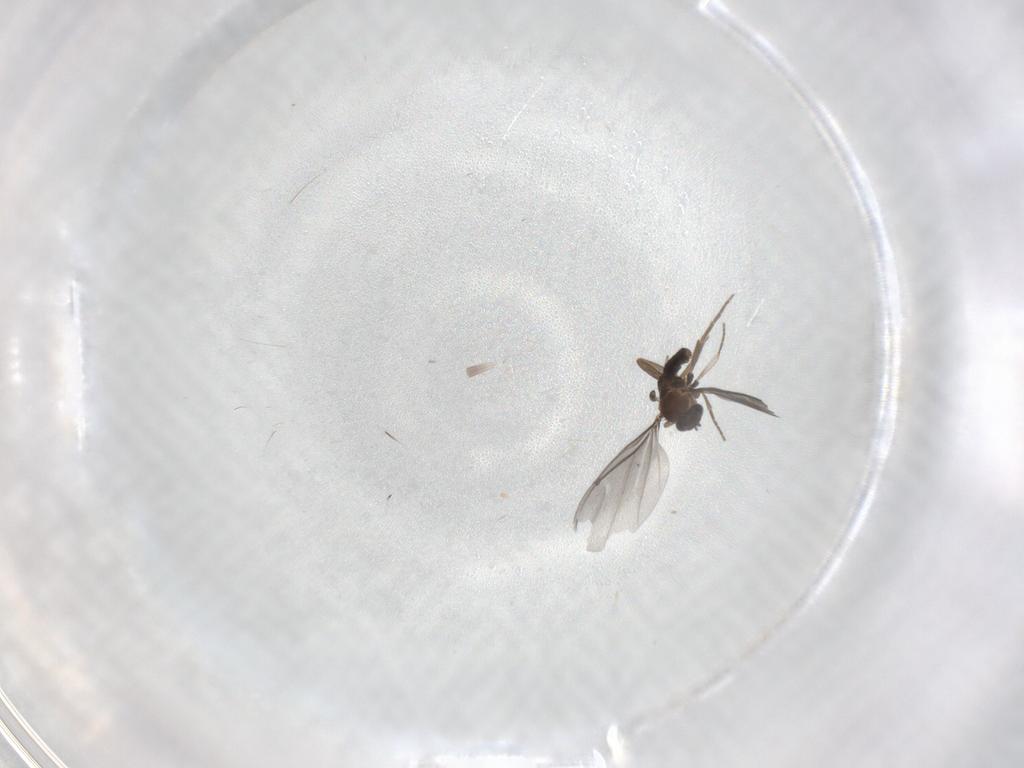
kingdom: Animalia
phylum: Arthropoda
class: Insecta
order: Diptera
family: Phoridae
